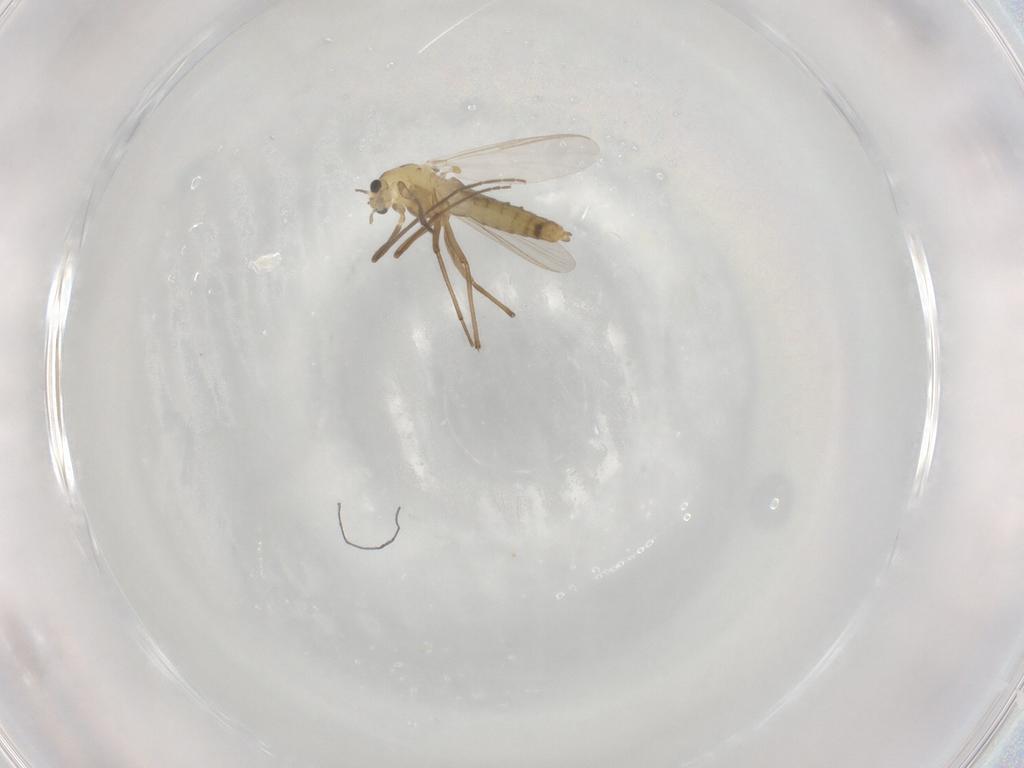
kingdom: Animalia
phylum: Arthropoda
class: Insecta
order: Diptera
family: Chironomidae
